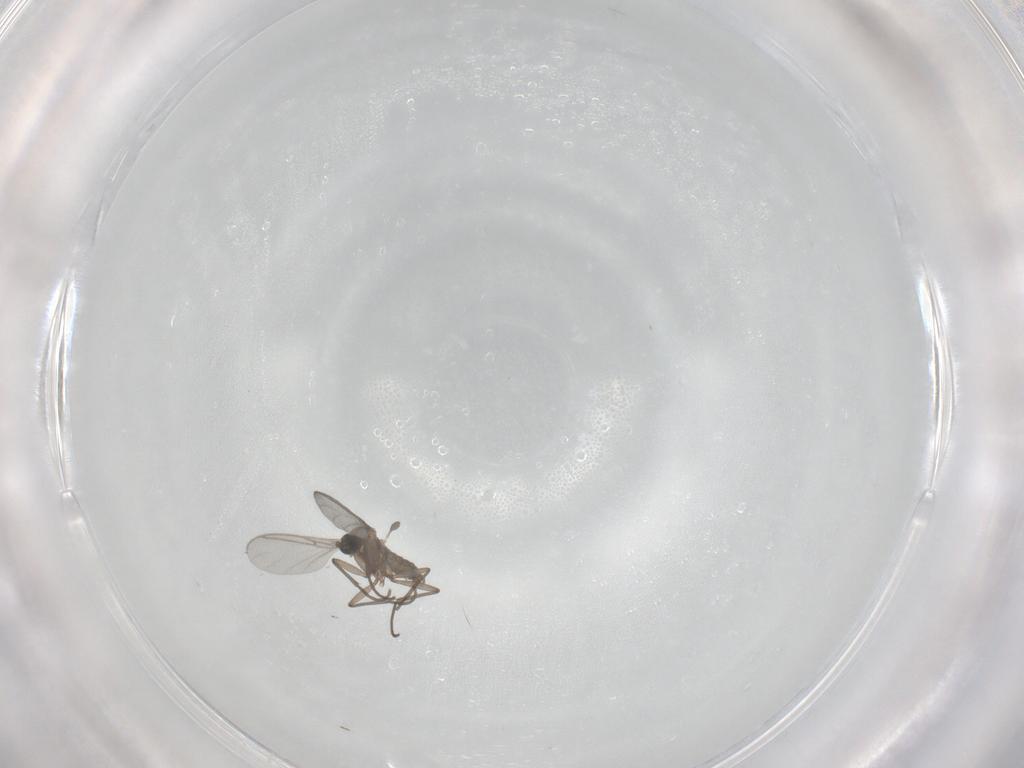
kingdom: Animalia
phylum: Arthropoda
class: Insecta
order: Diptera
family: Sciaridae
